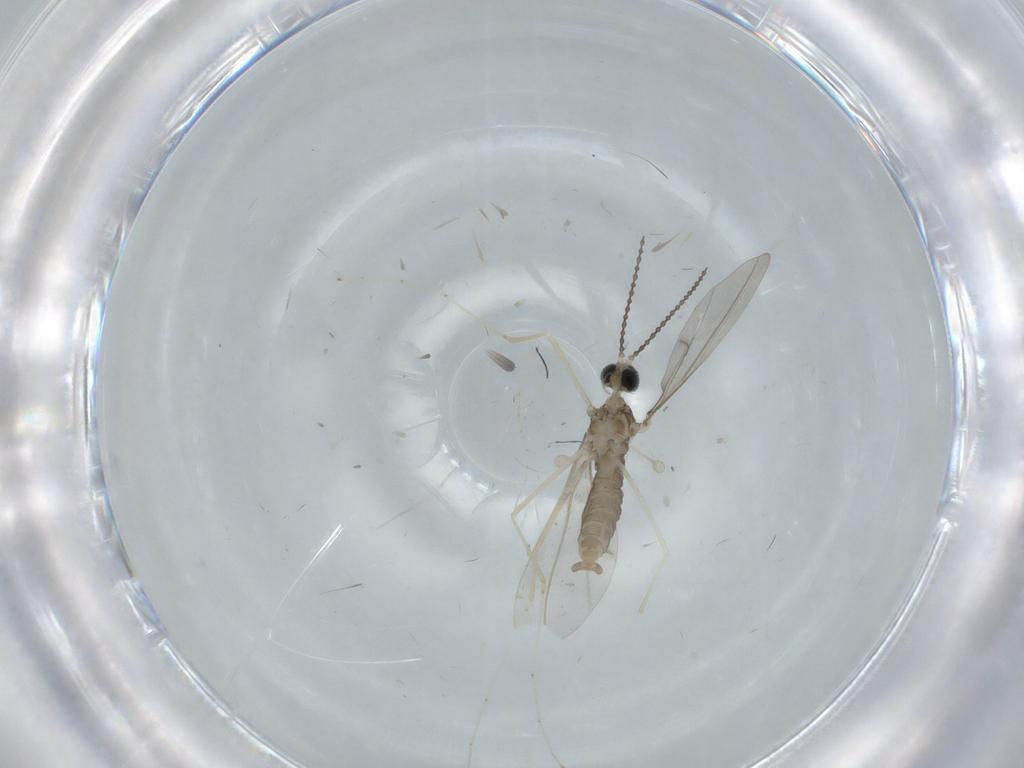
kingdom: Animalia
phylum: Arthropoda
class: Insecta
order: Diptera
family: Cecidomyiidae
